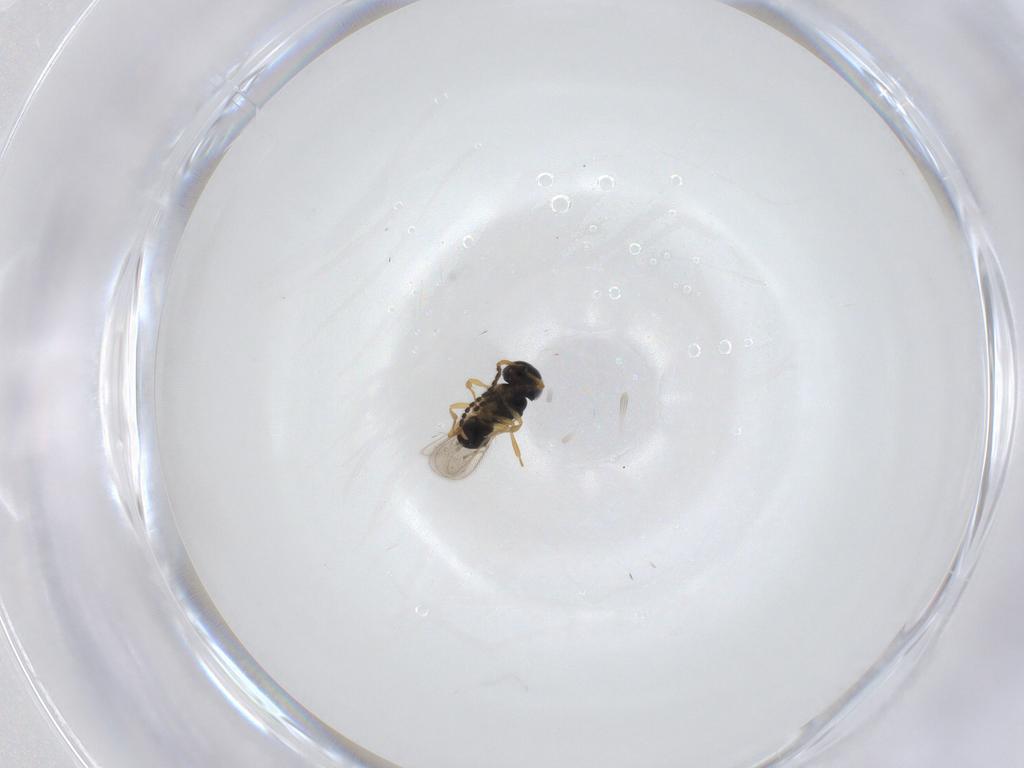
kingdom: Animalia
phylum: Arthropoda
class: Insecta
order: Hymenoptera
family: Scelionidae
